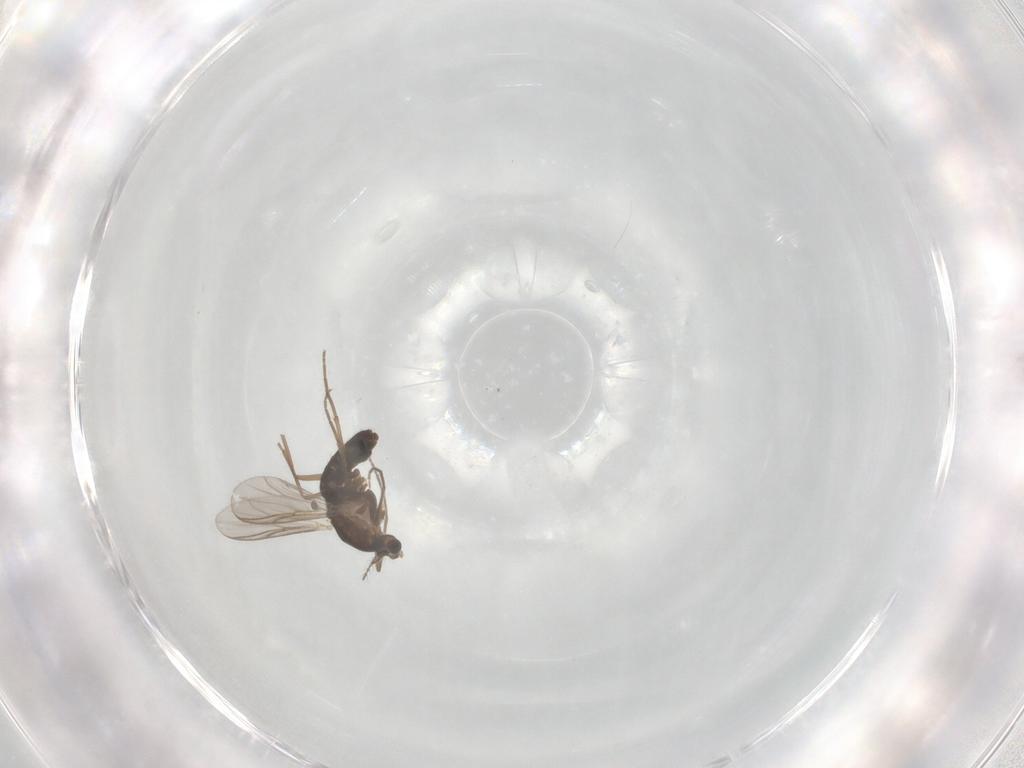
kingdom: Animalia
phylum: Arthropoda
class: Insecta
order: Diptera
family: Chironomidae
